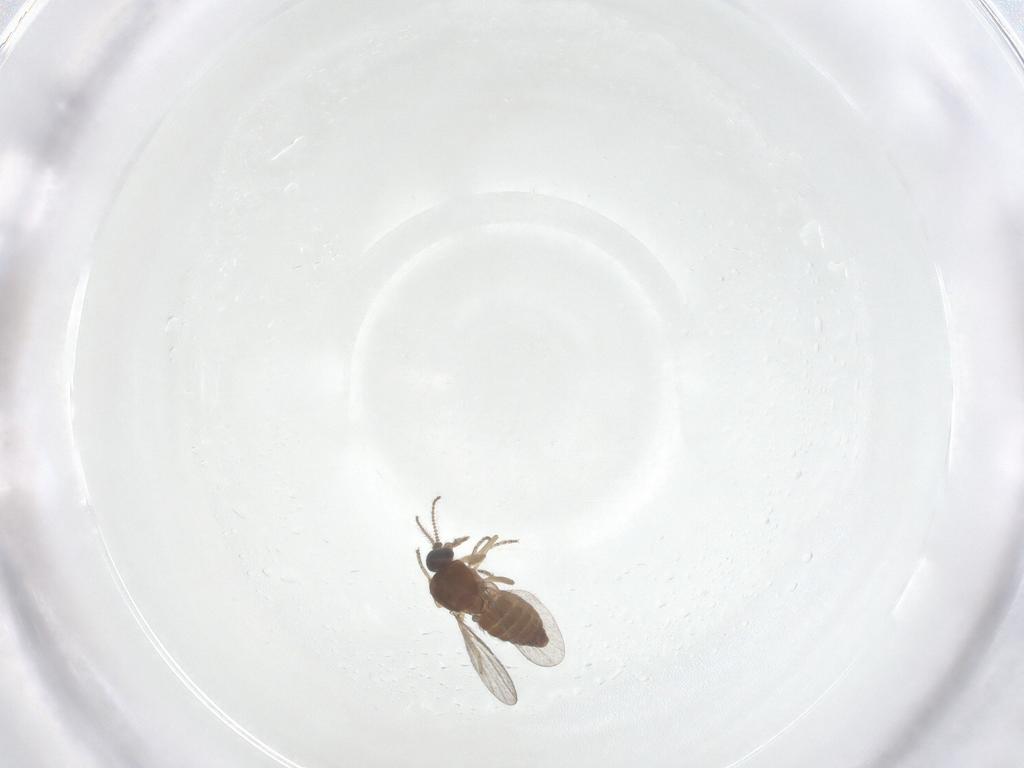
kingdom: Animalia
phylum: Arthropoda
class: Insecta
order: Diptera
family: Ceratopogonidae
